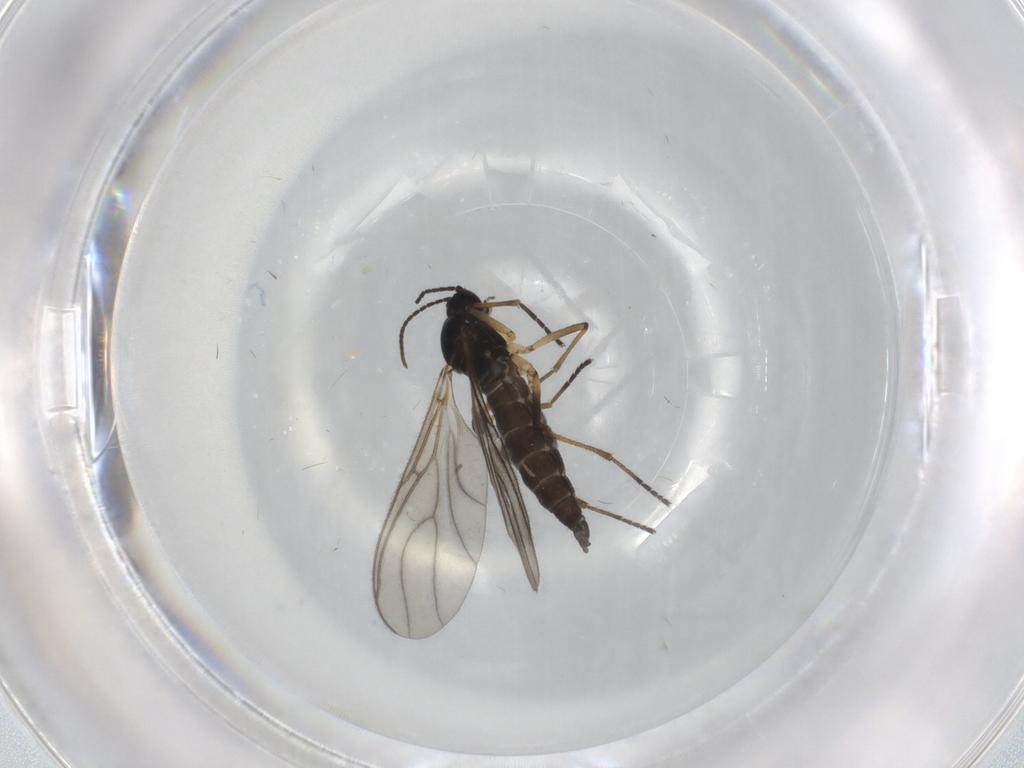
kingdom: Animalia
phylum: Arthropoda
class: Insecta
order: Diptera
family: Sciaridae
